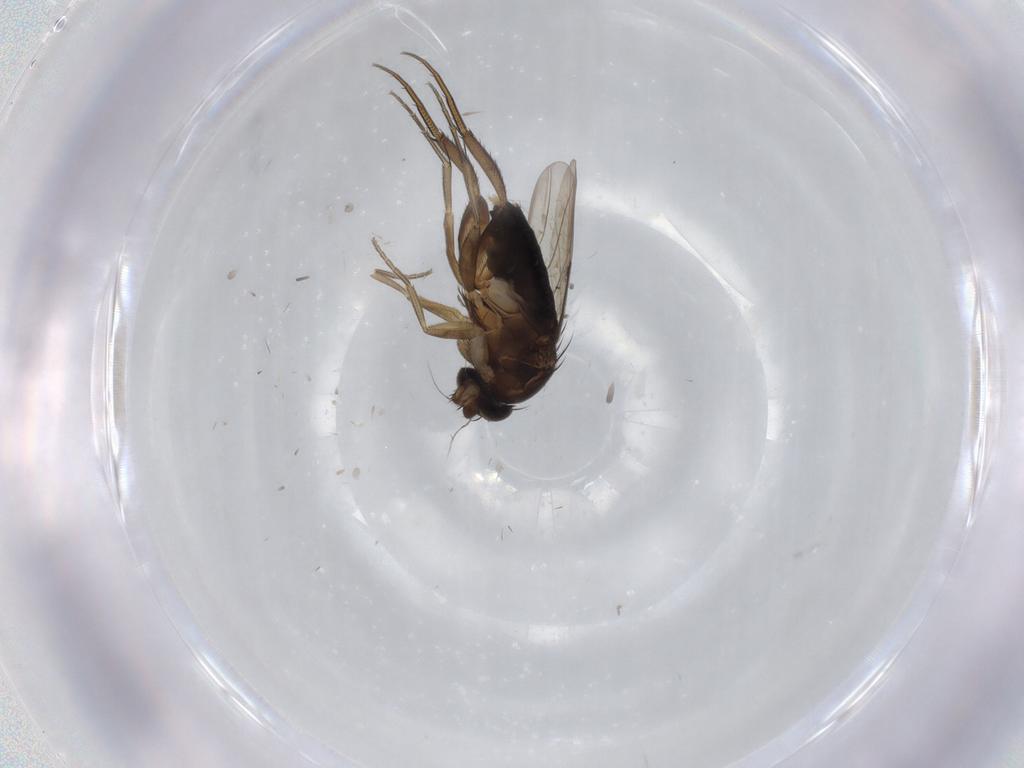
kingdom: Animalia
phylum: Arthropoda
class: Insecta
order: Diptera
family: Phoridae
